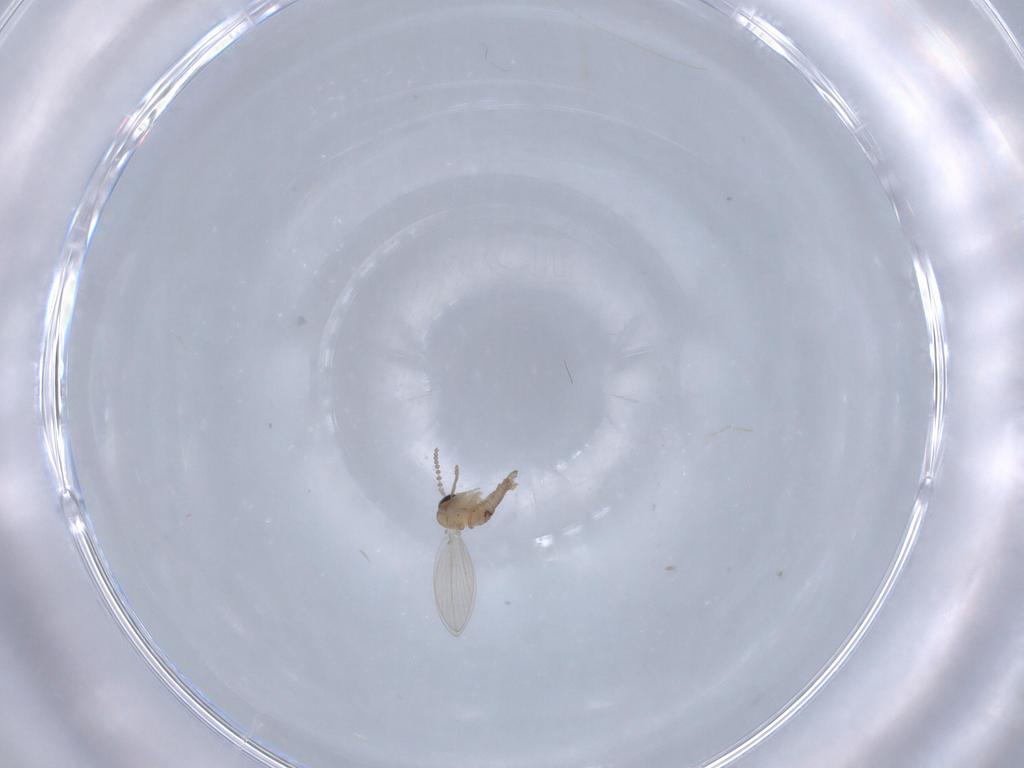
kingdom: Animalia
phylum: Arthropoda
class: Insecta
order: Diptera
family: Psychodidae
